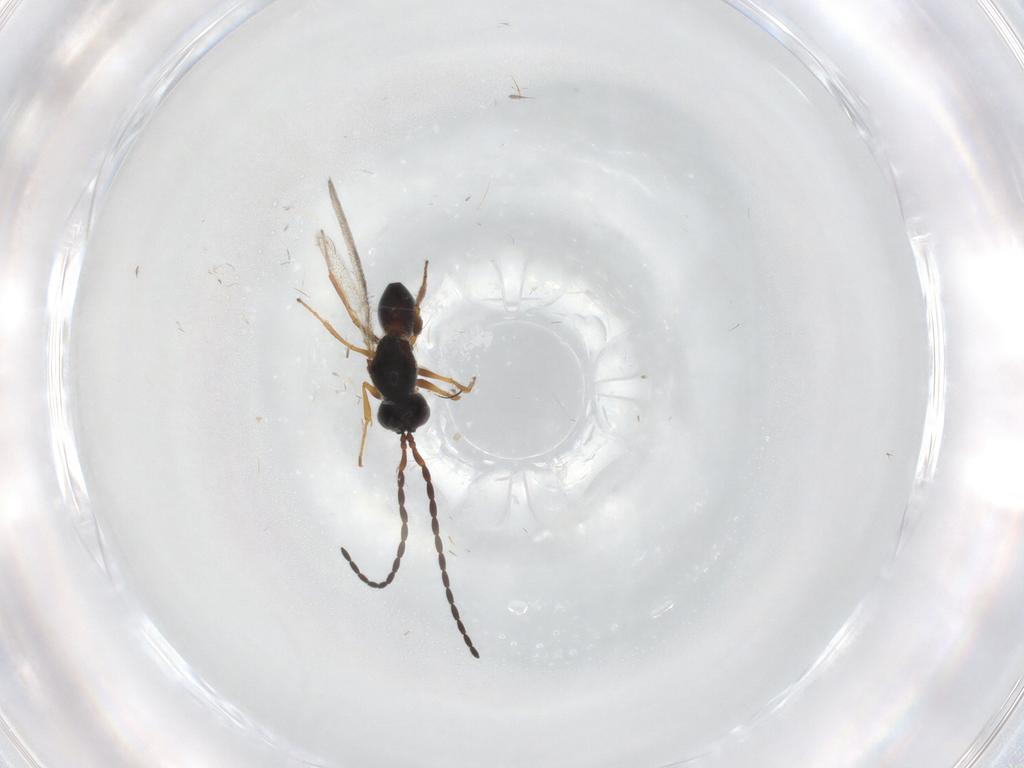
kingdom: Animalia
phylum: Arthropoda
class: Insecta
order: Hymenoptera
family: Figitidae
